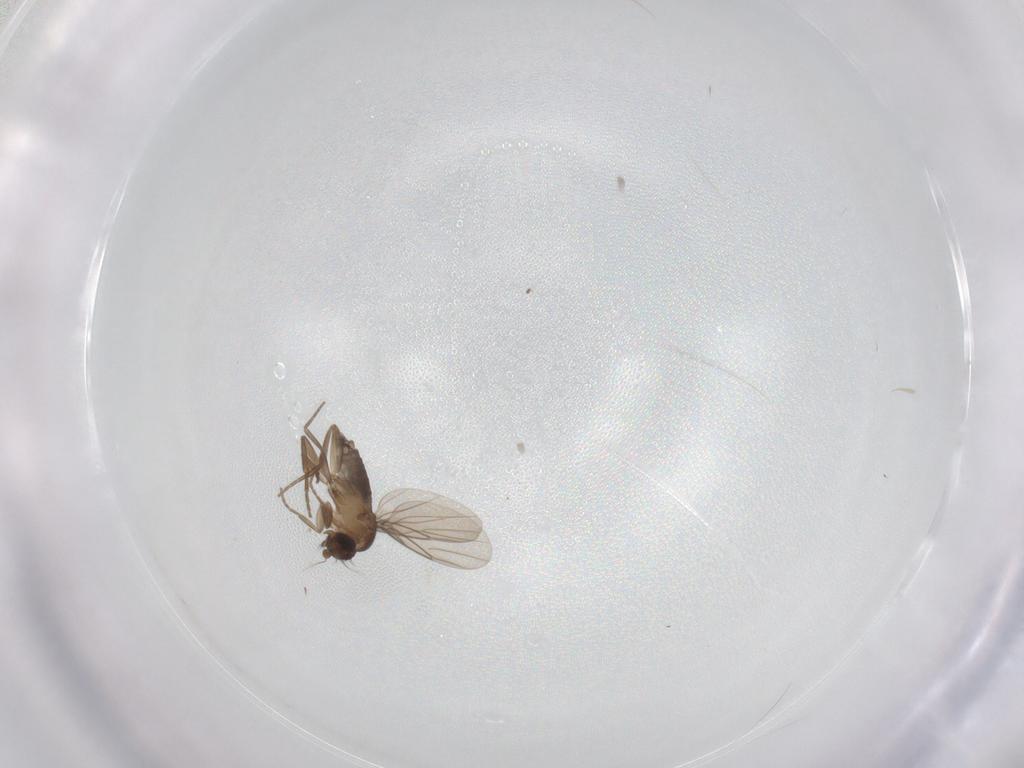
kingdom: Animalia
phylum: Arthropoda
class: Insecta
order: Diptera
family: Phoridae
